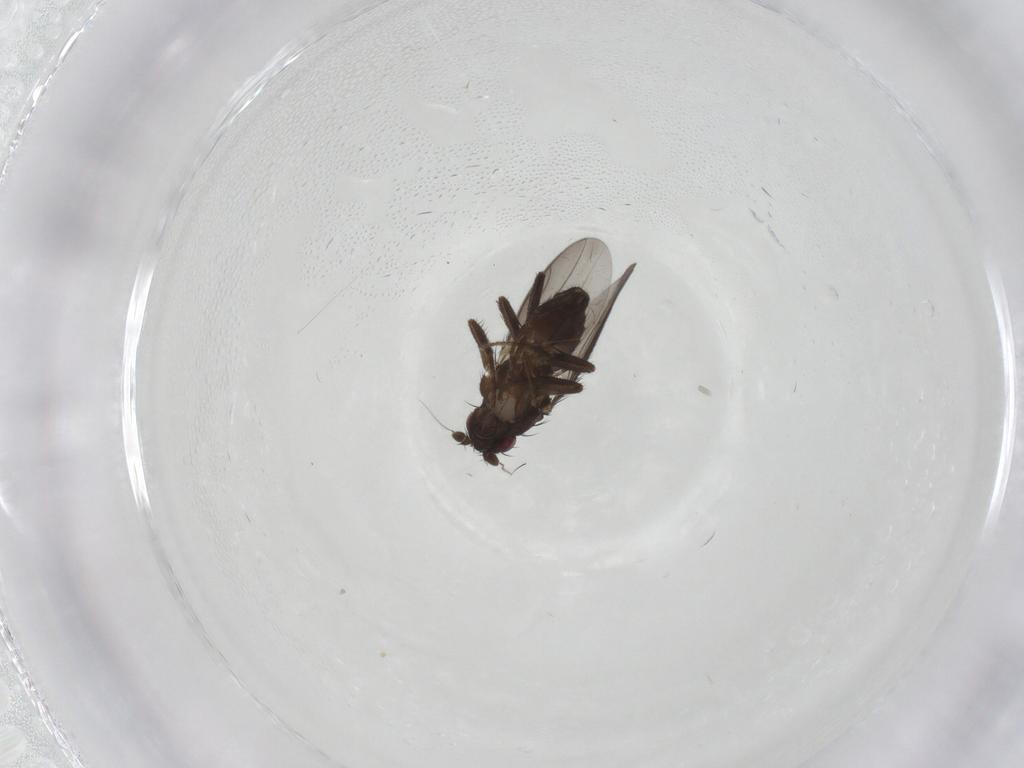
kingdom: Animalia
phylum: Arthropoda
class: Insecta
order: Diptera
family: Sphaeroceridae
